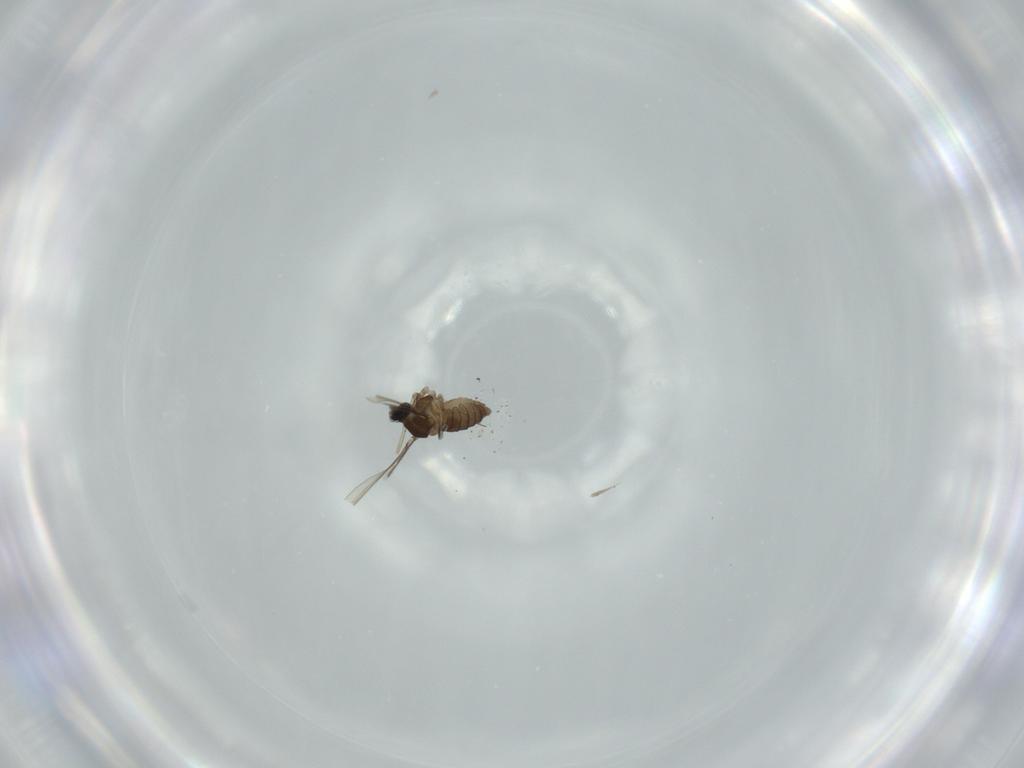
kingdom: Animalia
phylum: Arthropoda
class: Insecta
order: Diptera
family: Cecidomyiidae
